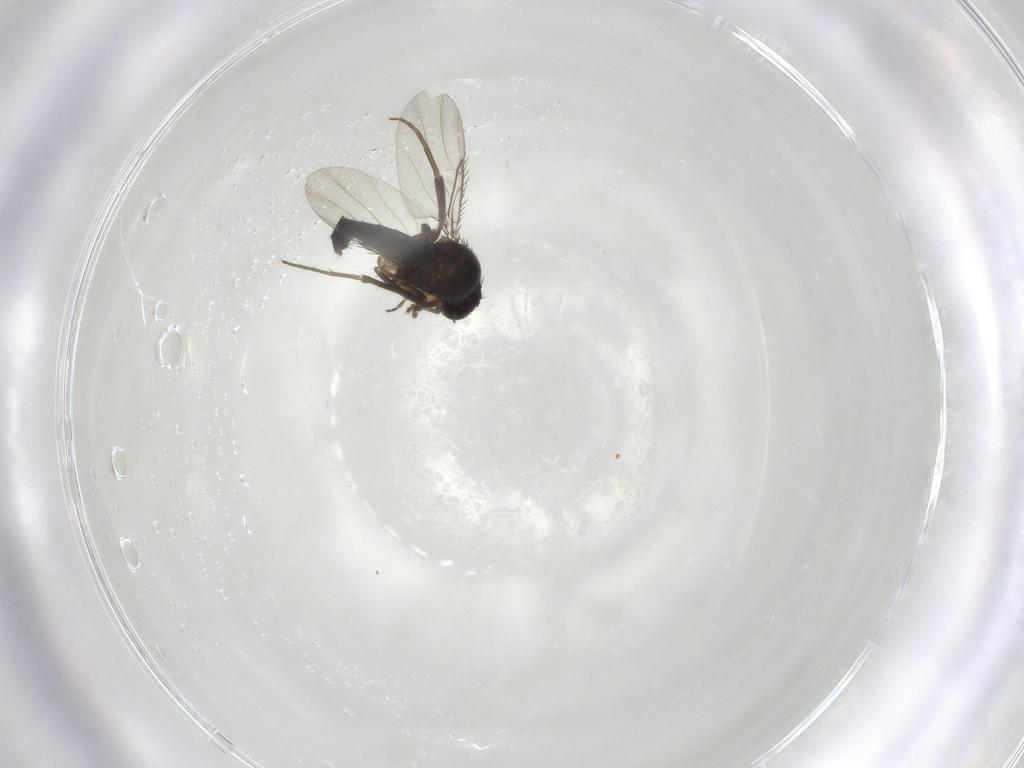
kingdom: Animalia
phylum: Arthropoda
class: Insecta
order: Diptera
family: Phoridae
